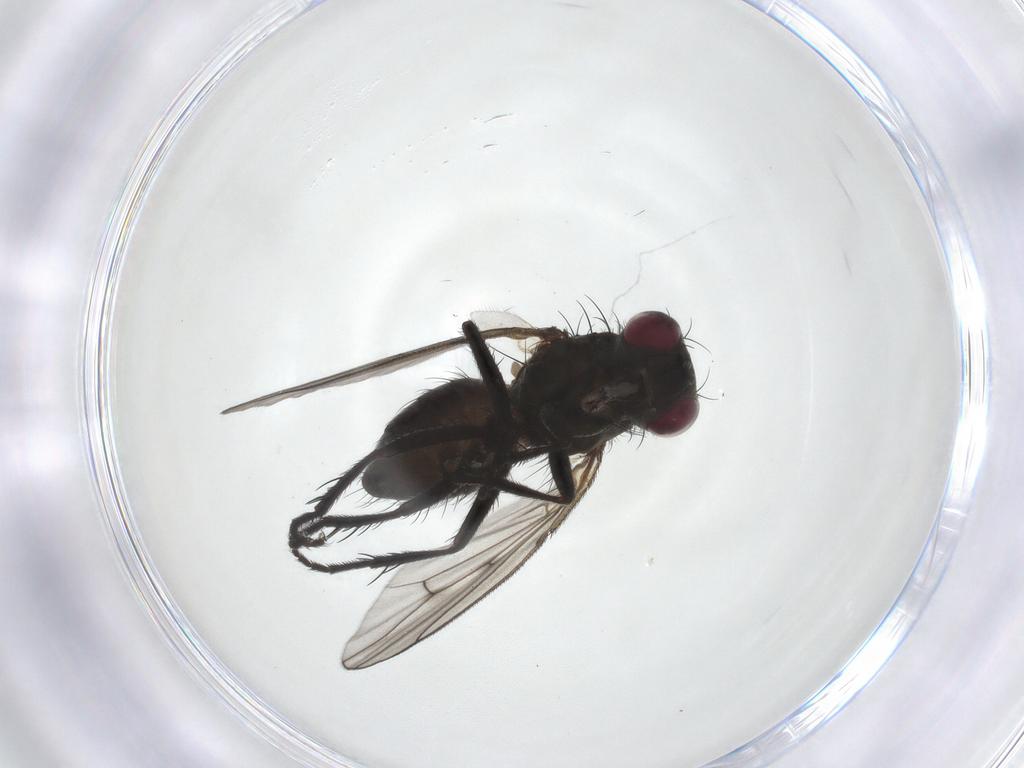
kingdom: Animalia
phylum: Arthropoda
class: Insecta
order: Diptera
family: Muscidae
